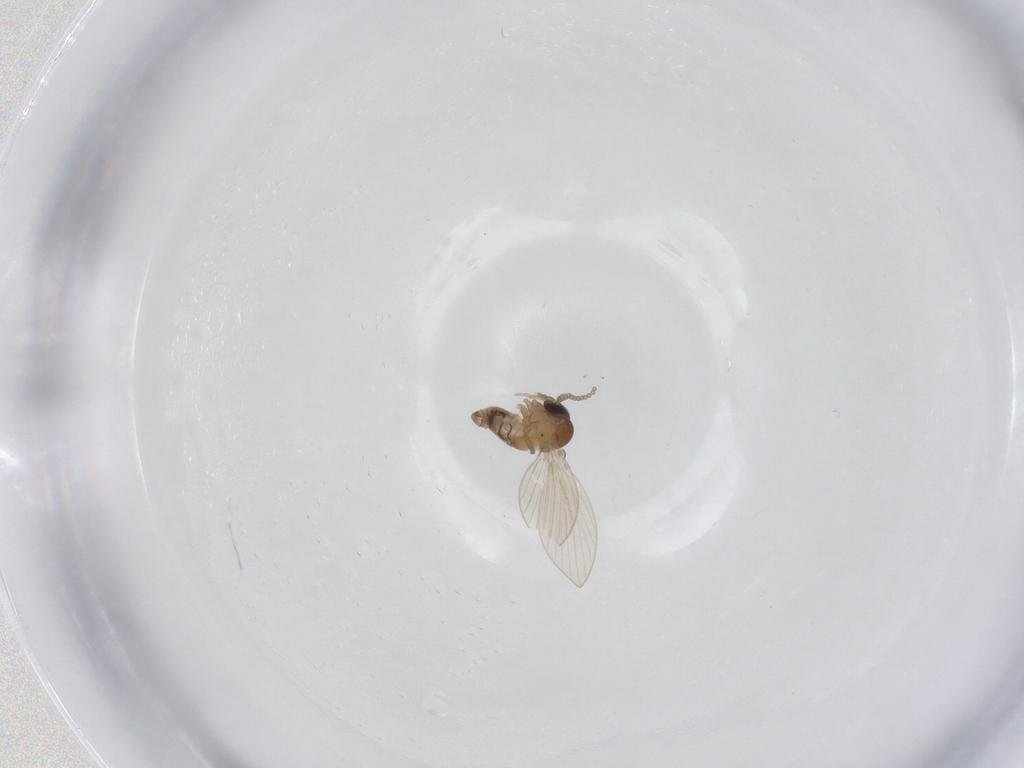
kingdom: Animalia
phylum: Arthropoda
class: Insecta
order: Diptera
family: Psychodidae
